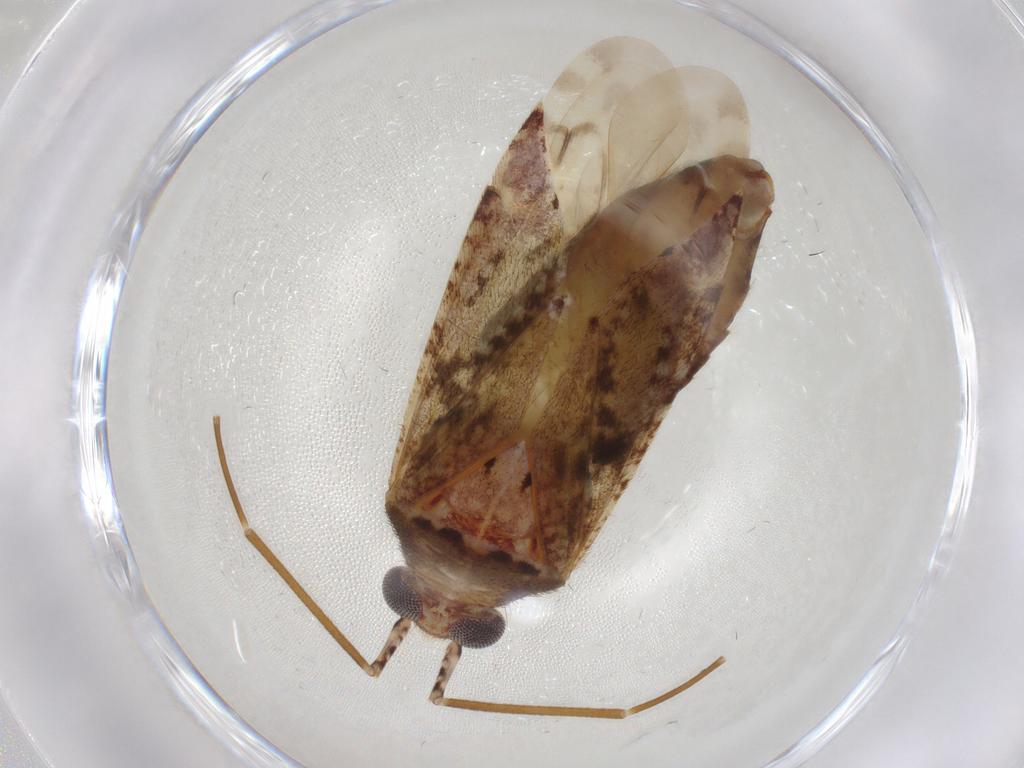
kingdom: Animalia
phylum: Arthropoda
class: Insecta
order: Hemiptera
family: Miridae
